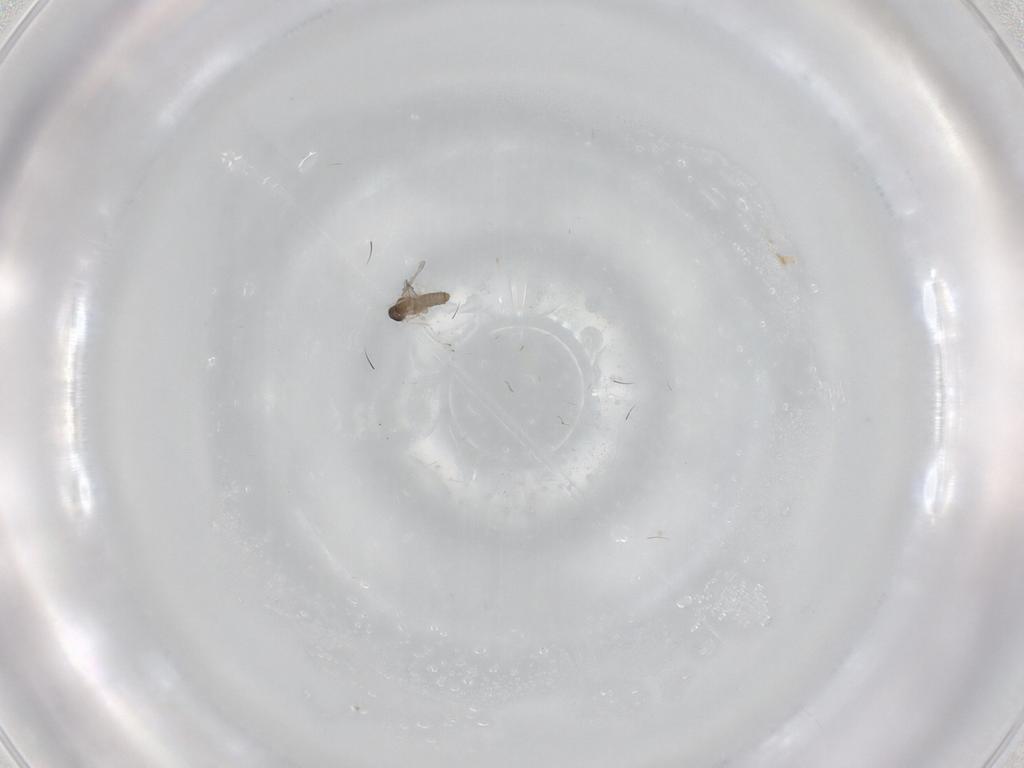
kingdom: Animalia
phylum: Arthropoda
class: Insecta
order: Diptera
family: Cecidomyiidae
